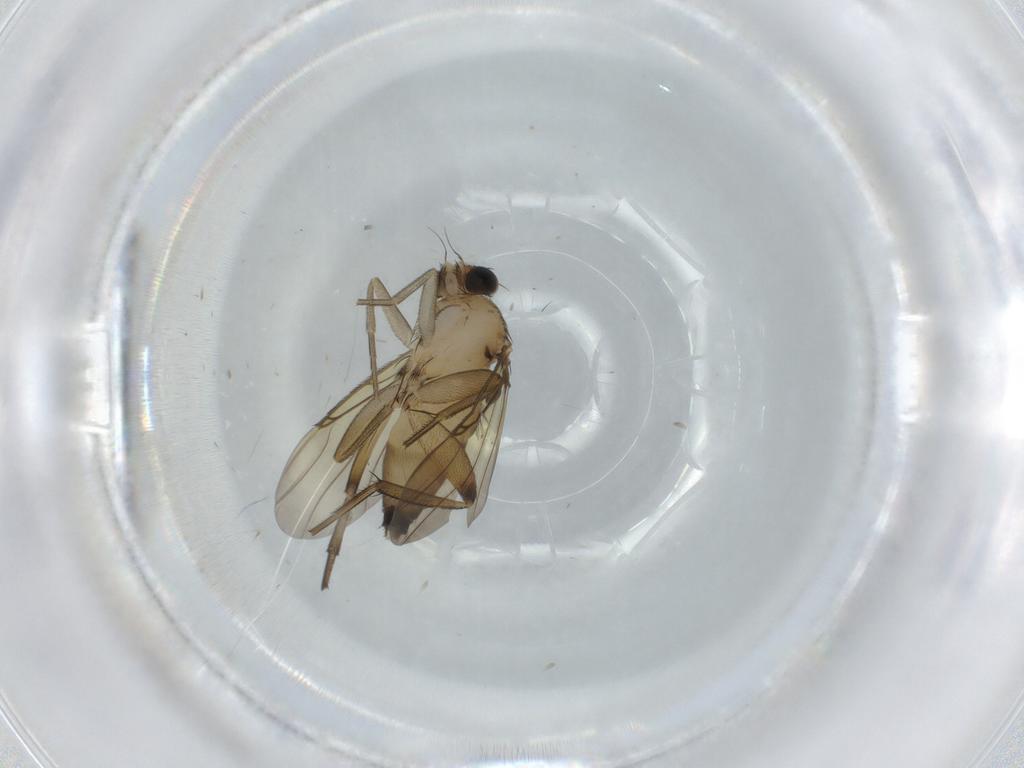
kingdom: Animalia
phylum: Arthropoda
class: Insecta
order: Diptera
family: Phoridae
